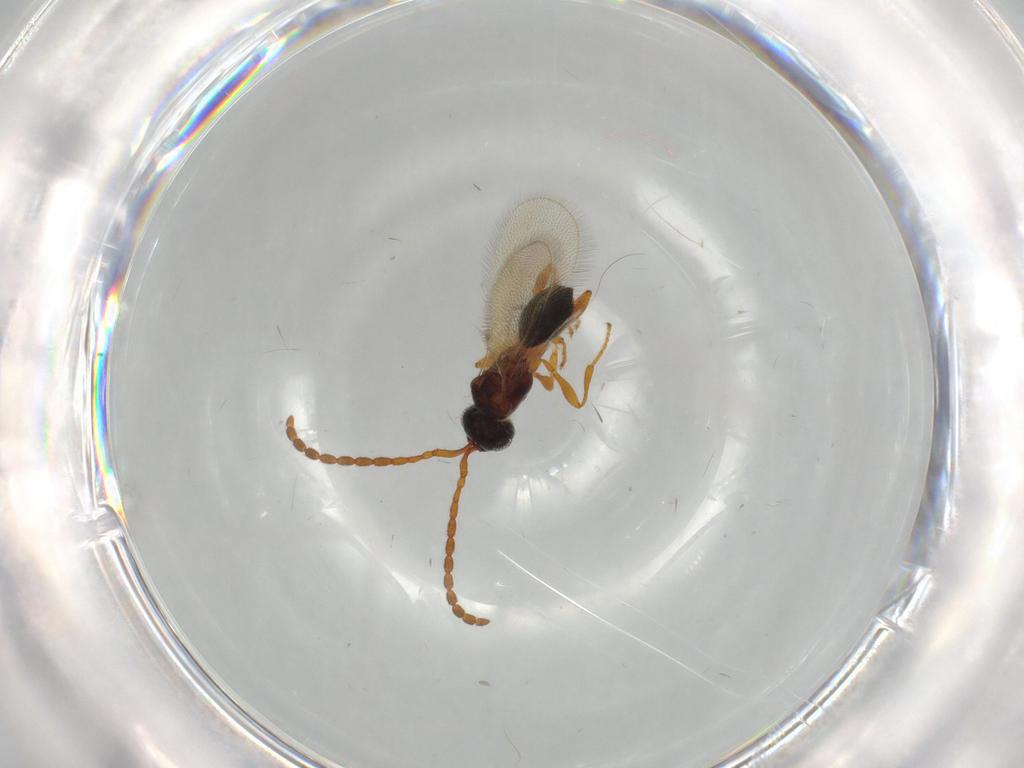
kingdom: Animalia
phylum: Arthropoda
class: Insecta
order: Hymenoptera
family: Diapriidae
